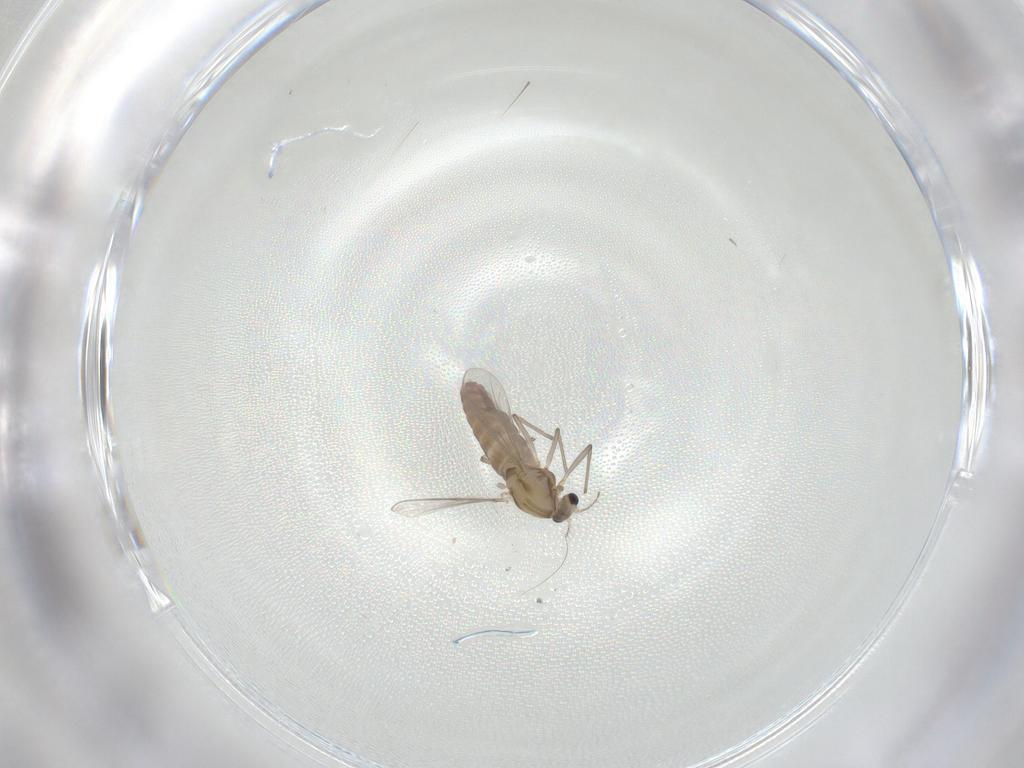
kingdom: Animalia
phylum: Arthropoda
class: Insecta
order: Diptera
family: Chironomidae
